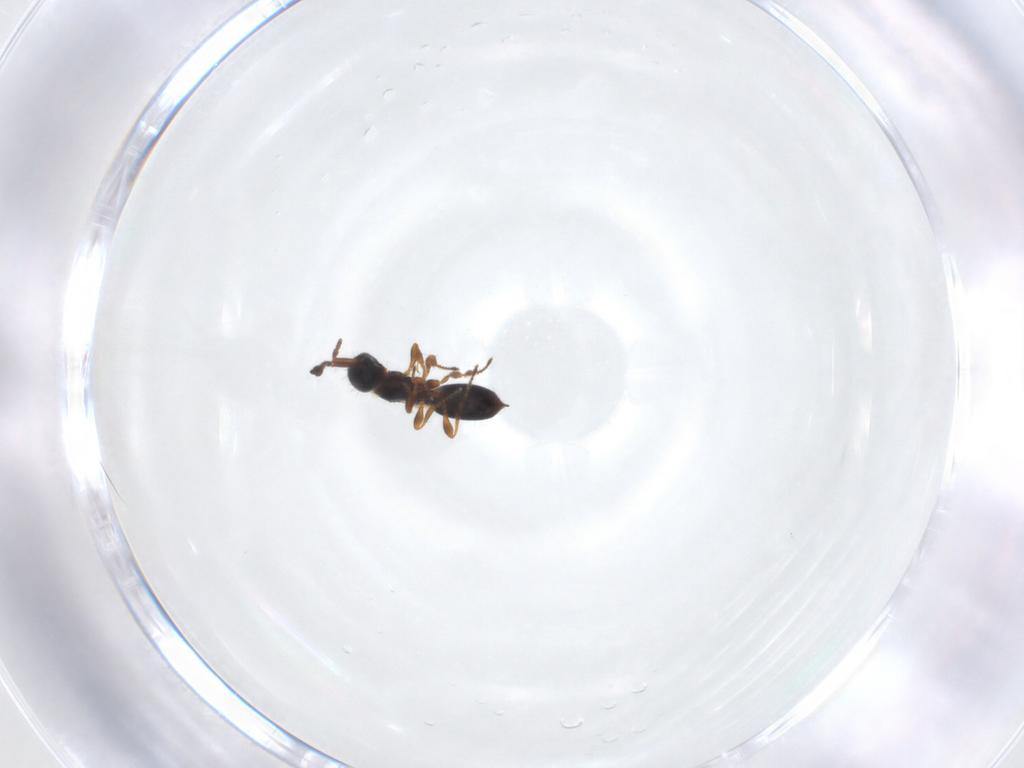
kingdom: Animalia
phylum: Arthropoda
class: Insecta
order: Hymenoptera
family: Diapriidae
